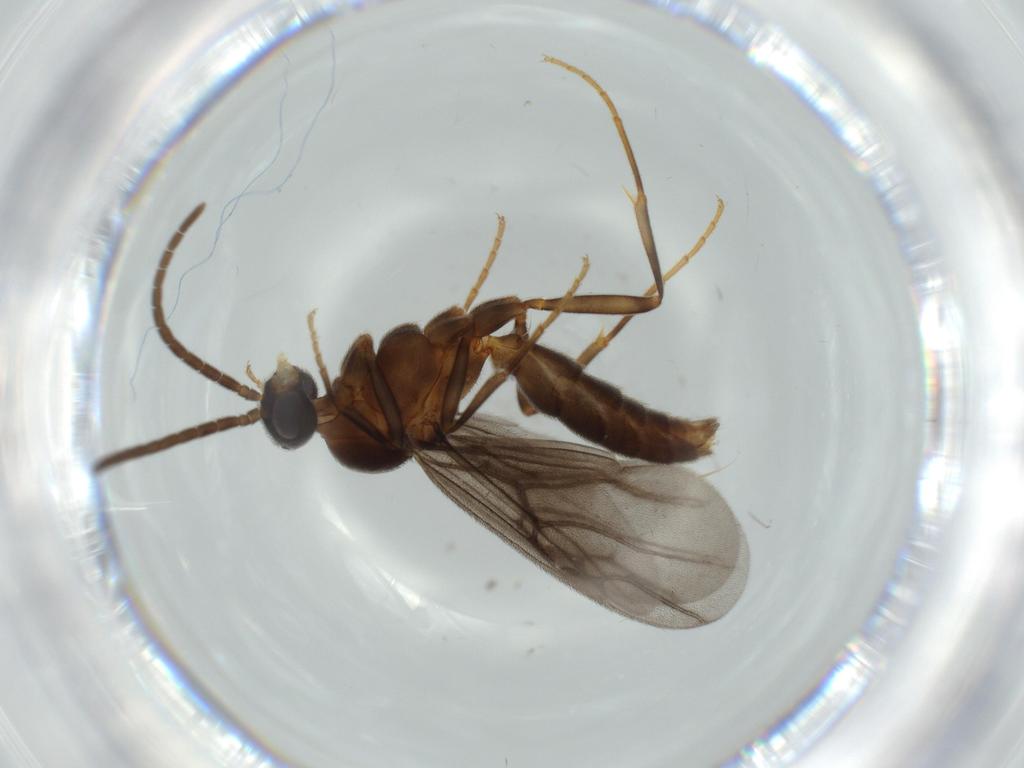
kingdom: Animalia
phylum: Arthropoda
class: Insecta
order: Hymenoptera
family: Formicidae
